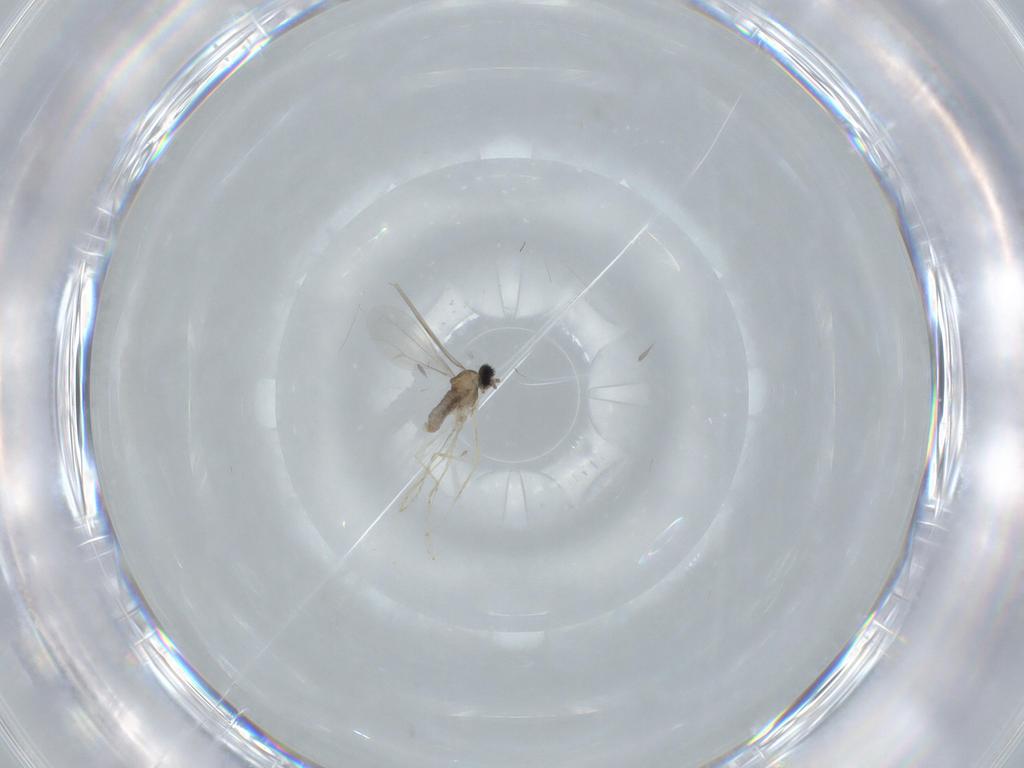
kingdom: Animalia
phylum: Arthropoda
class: Insecta
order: Diptera
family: Cecidomyiidae
